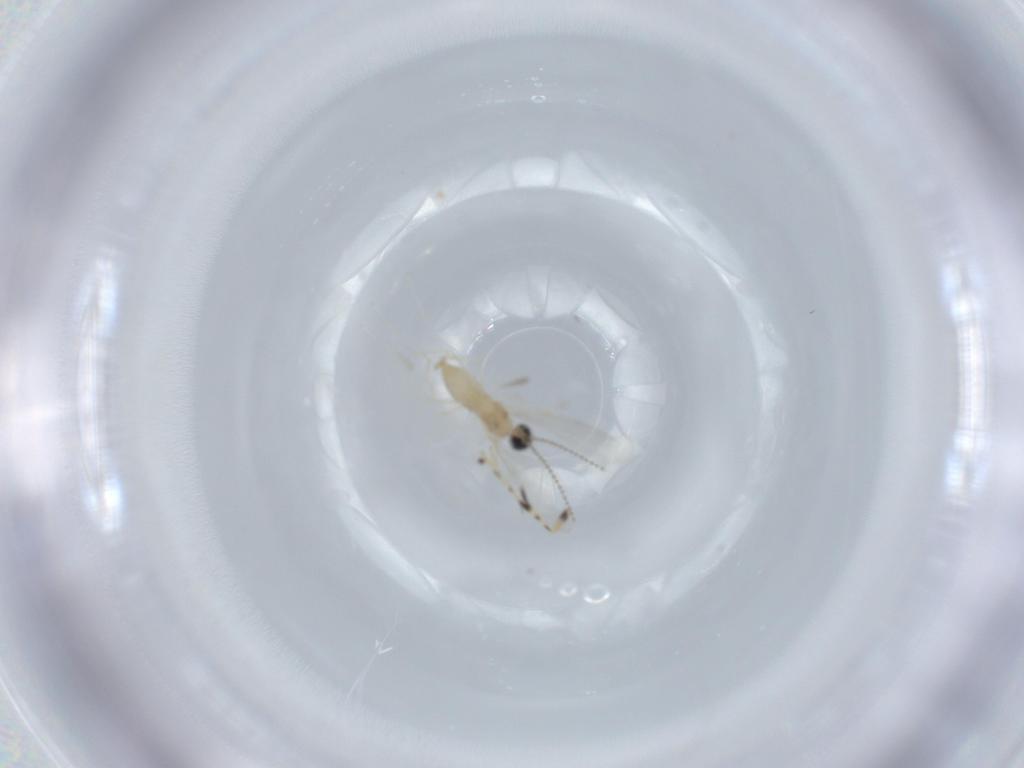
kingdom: Animalia
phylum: Arthropoda
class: Insecta
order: Diptera
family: Cecidomyiidae
